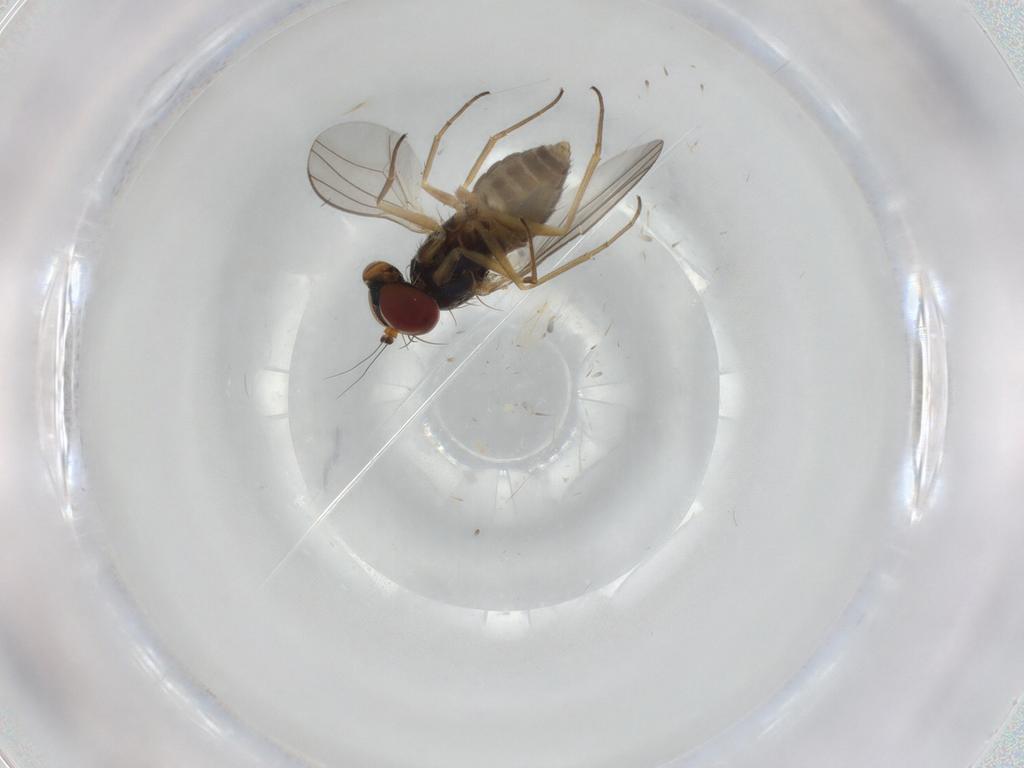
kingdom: Animalia
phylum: Arthropoda
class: Insecta
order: Diptera
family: Dolichopodidae
